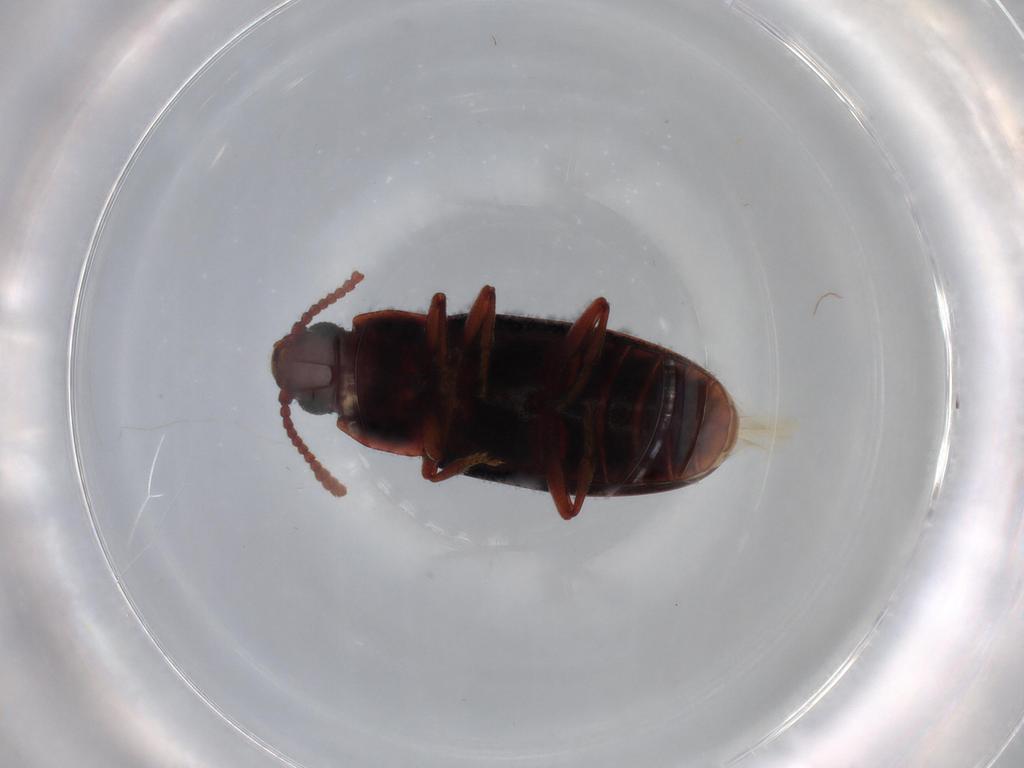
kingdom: Animalia
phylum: Arthropoda
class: Insecta
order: Coleoptera
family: Erotylidae
